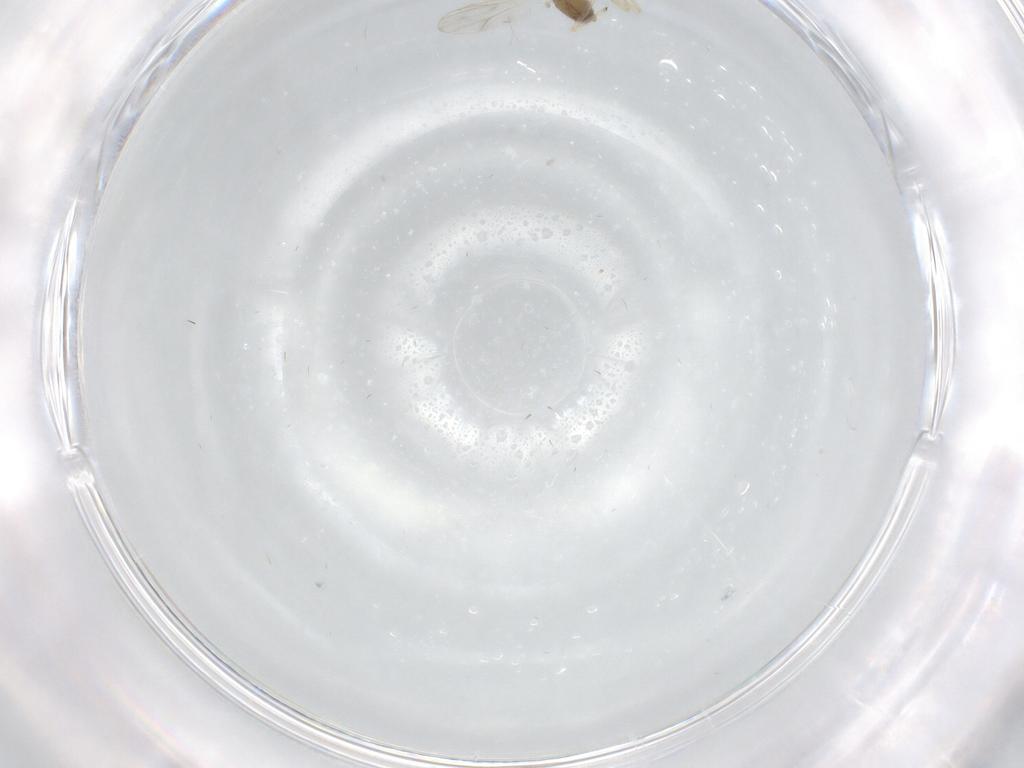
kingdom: Animalia
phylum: Arthropoda
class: Insecta
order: Diptera
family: Chironomidae
